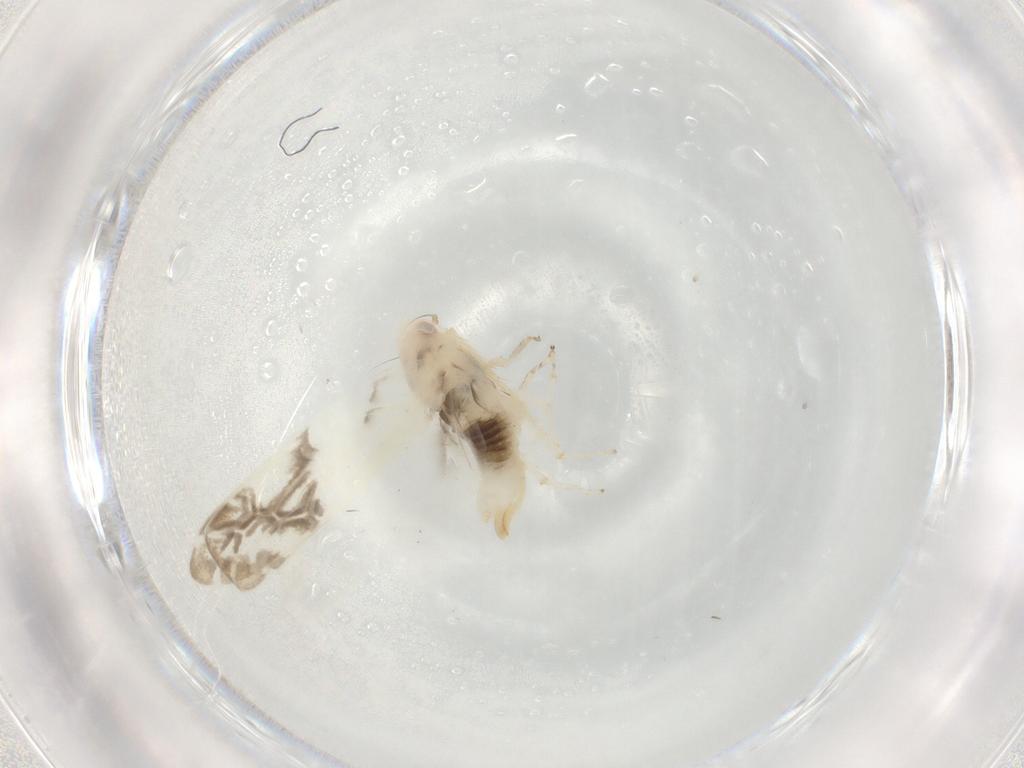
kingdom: Animalia
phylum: Arthropoda
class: Insecta
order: Hemiptera
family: Cicadellidae
